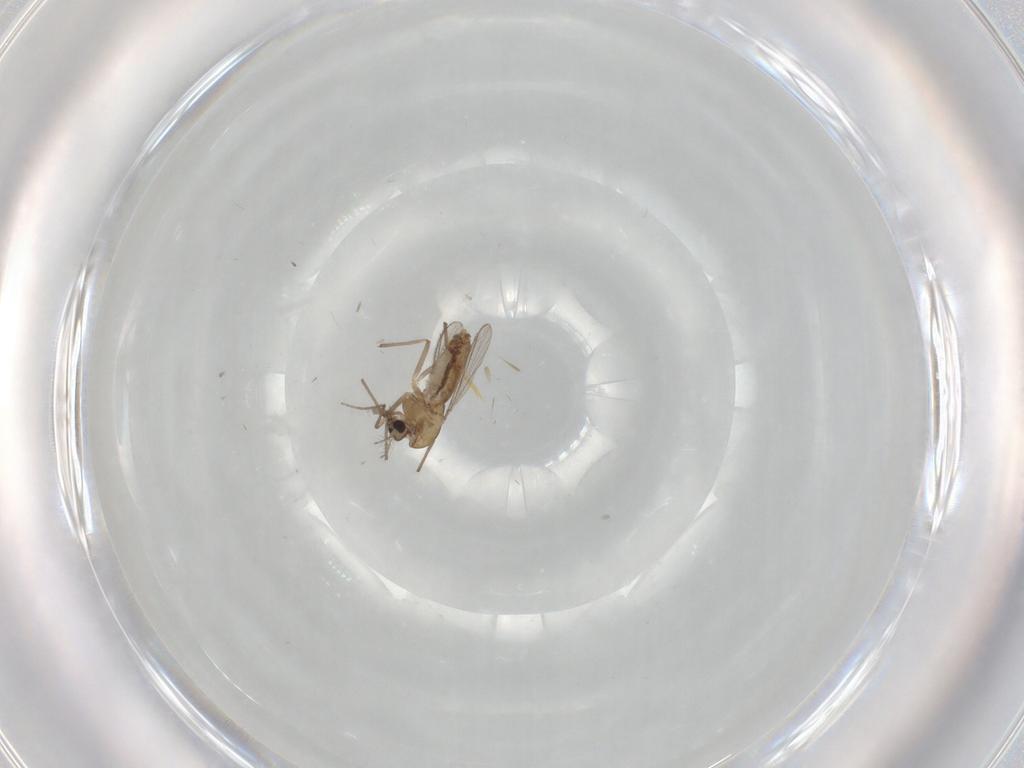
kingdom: Animalia
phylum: Arthropoda
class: Insecta
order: Diptera
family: Chironomidae
